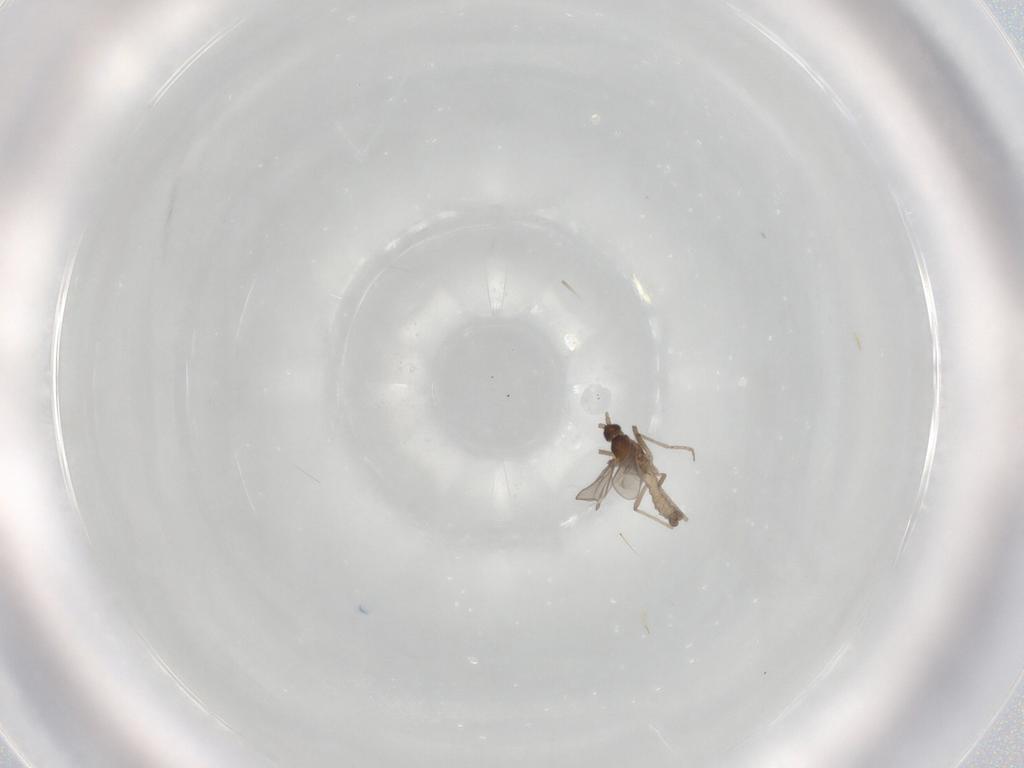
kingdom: Animalia
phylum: Arthropoda
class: Insecta
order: Diptera
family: Cecidomyiidae
